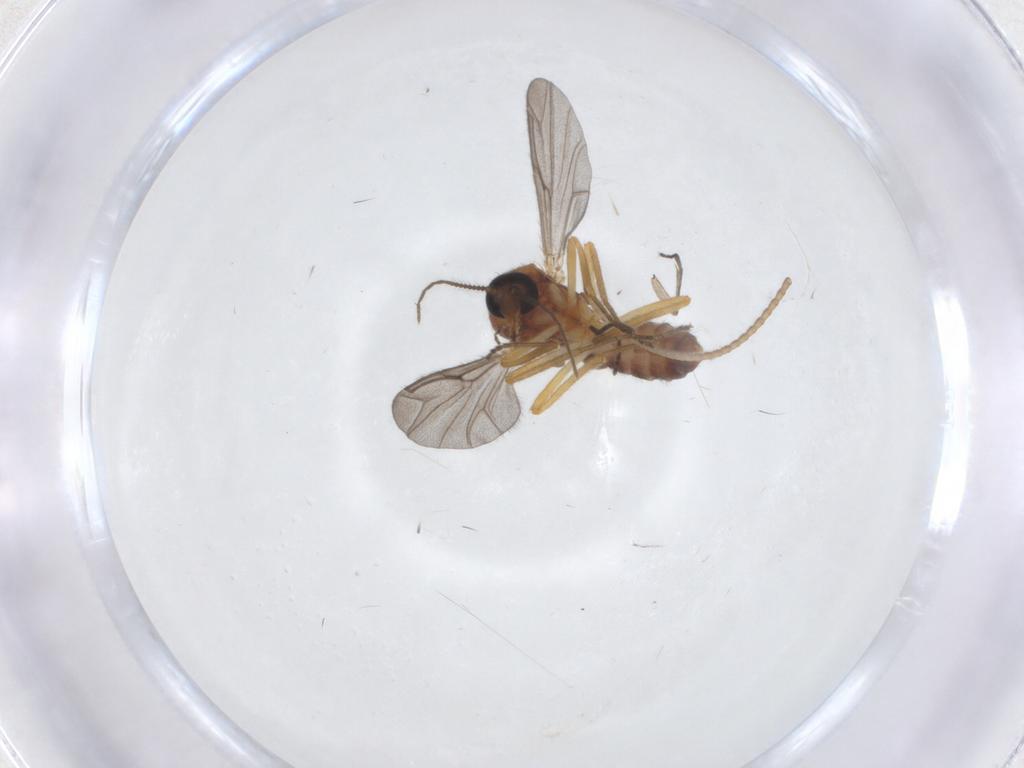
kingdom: Animalia
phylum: Arthropoda
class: Insecta
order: Diptera
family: Ceratopogonidae
